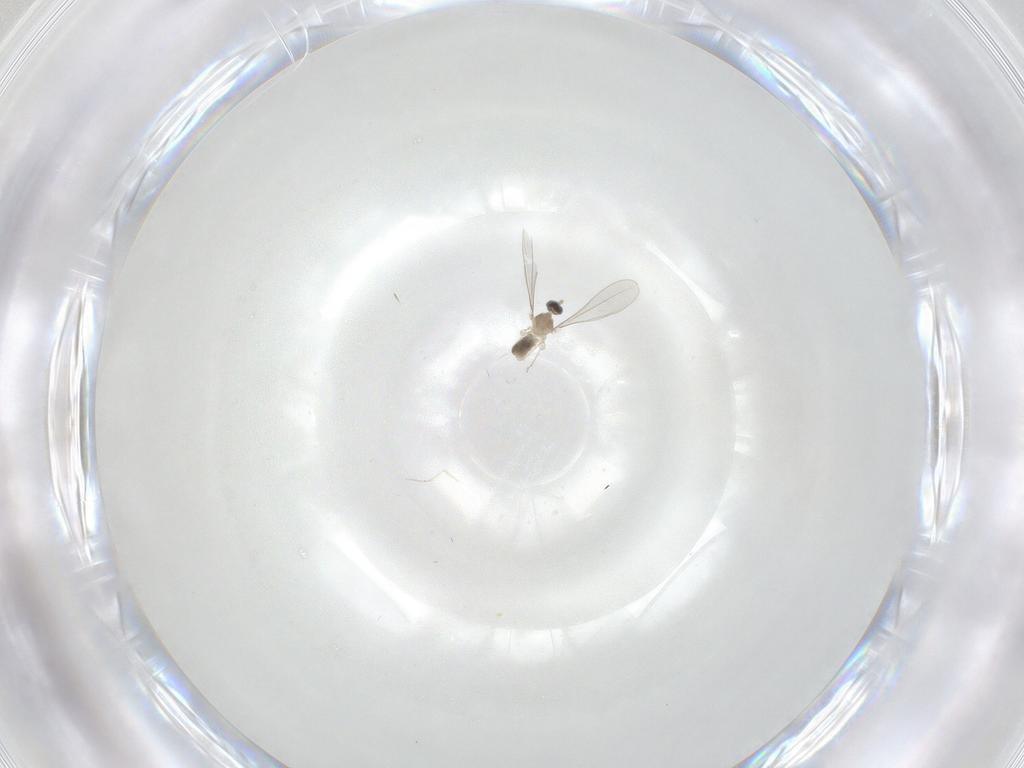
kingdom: Animalia
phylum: Arthropoda
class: Insecta
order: Diptera
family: Cecidomyiidae
